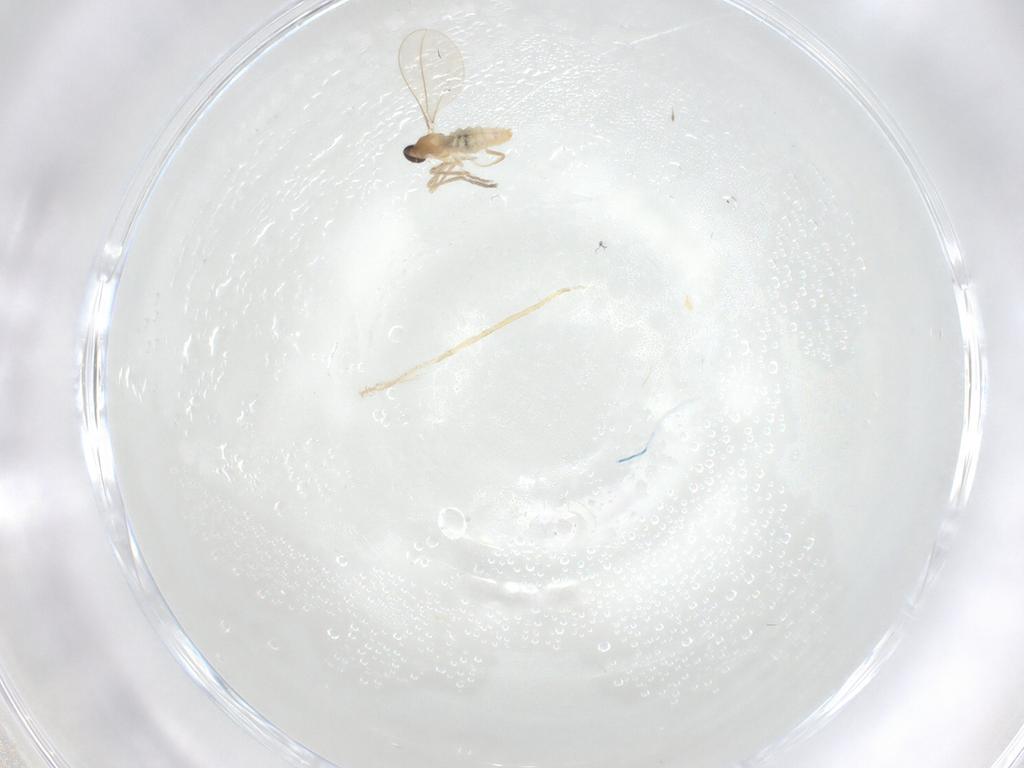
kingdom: Animalia
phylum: Arthropoda
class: Insecta
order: Diptera
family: Cecidomyiidae
